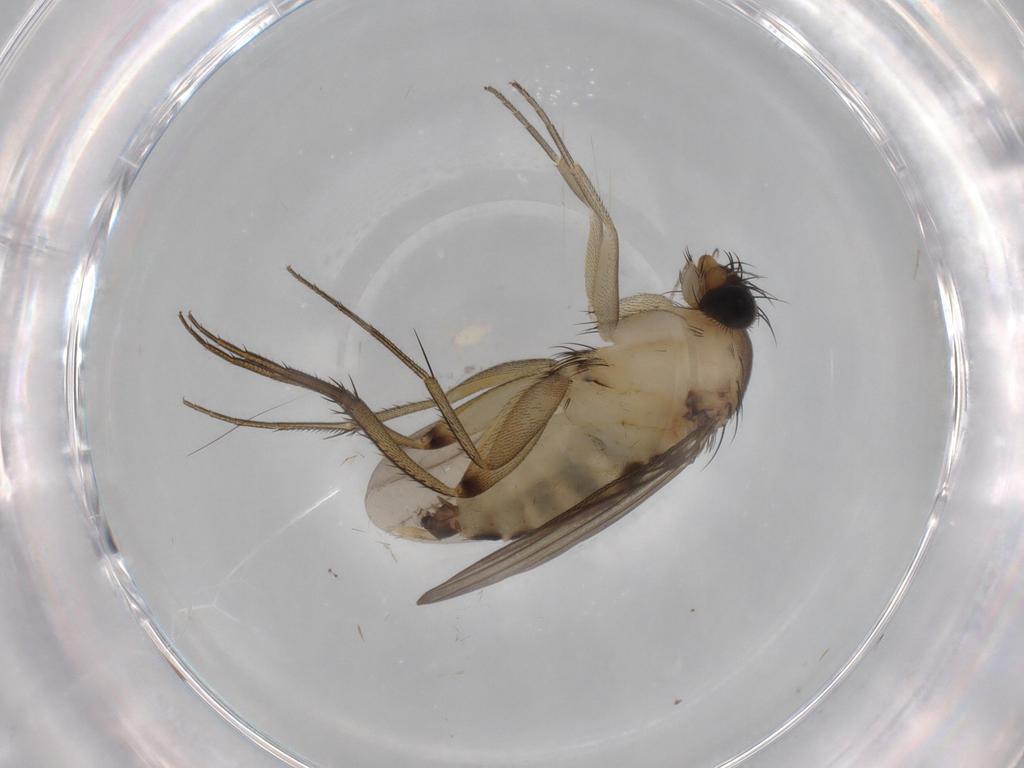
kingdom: Animalia
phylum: Arthropoda
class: Insecta
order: Diptera
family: Phoridae
